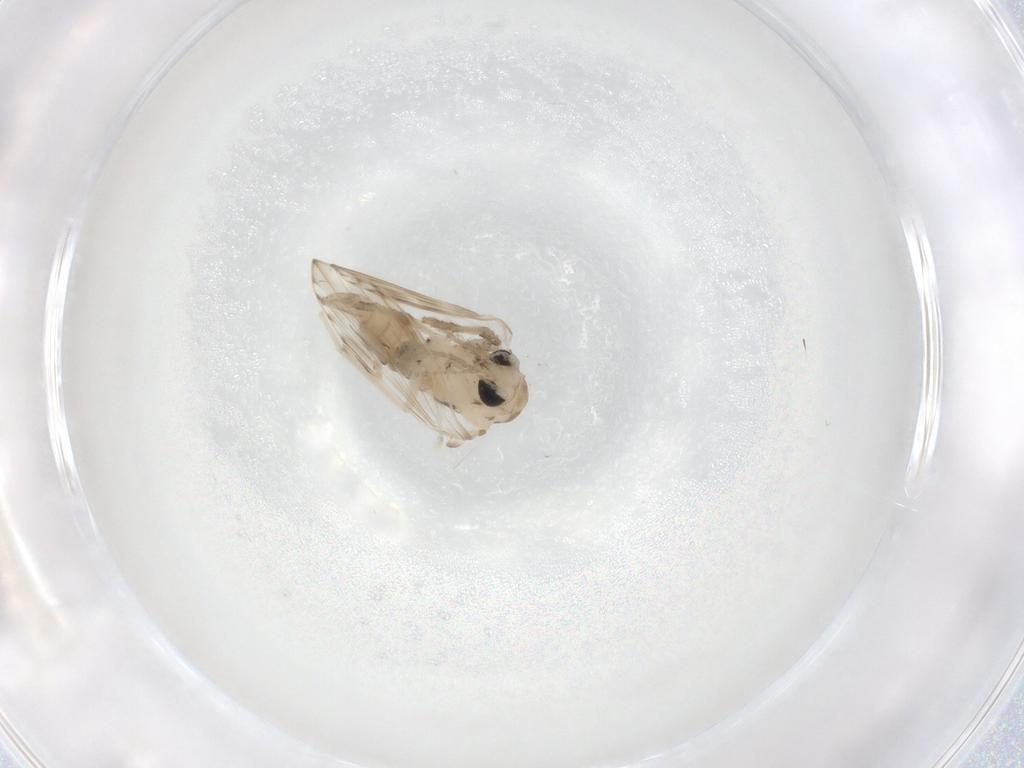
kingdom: Animalia
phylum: Arthropoda
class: Insecta
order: Diptera
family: Psychodidae
